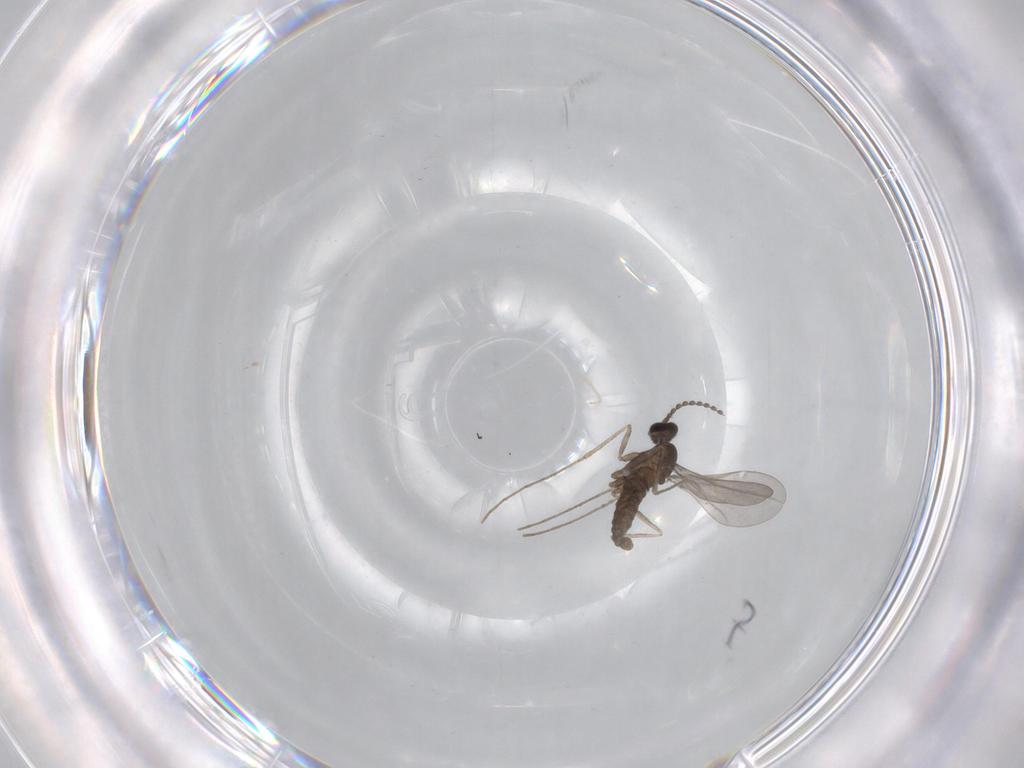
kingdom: Animalia
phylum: Arthropoda
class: Insecta
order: Diptera
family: Cecidomyiidae
